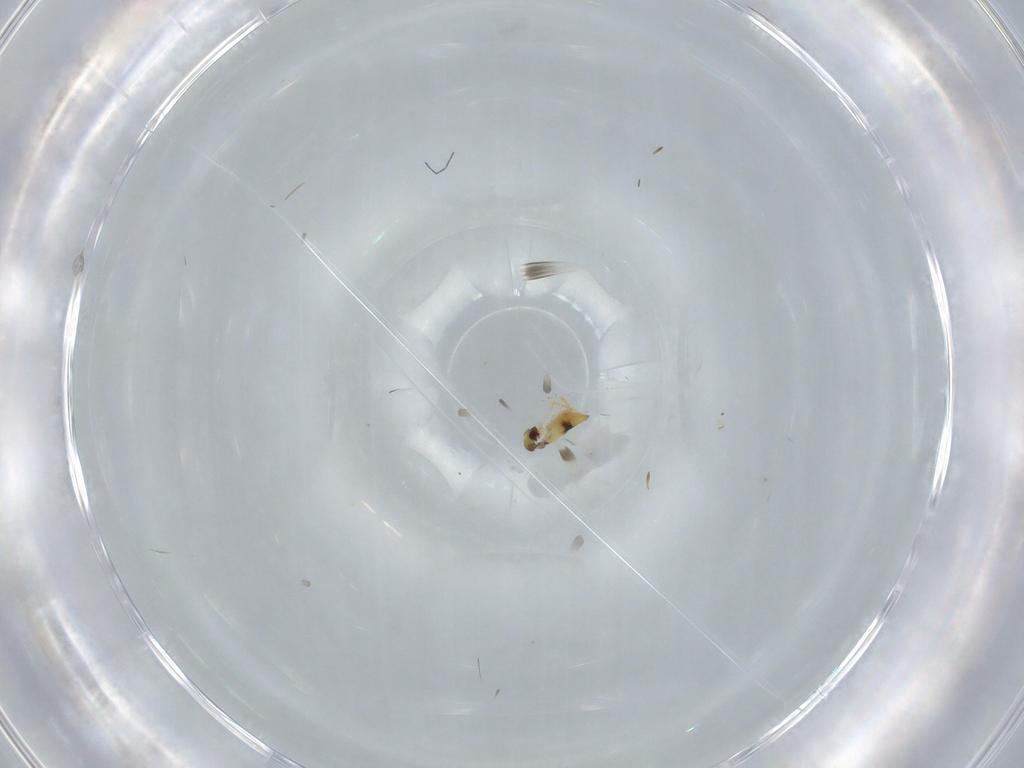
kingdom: Animalia
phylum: Arthropoda
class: Insecta
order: Hymenoptera
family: Signiphoridae
